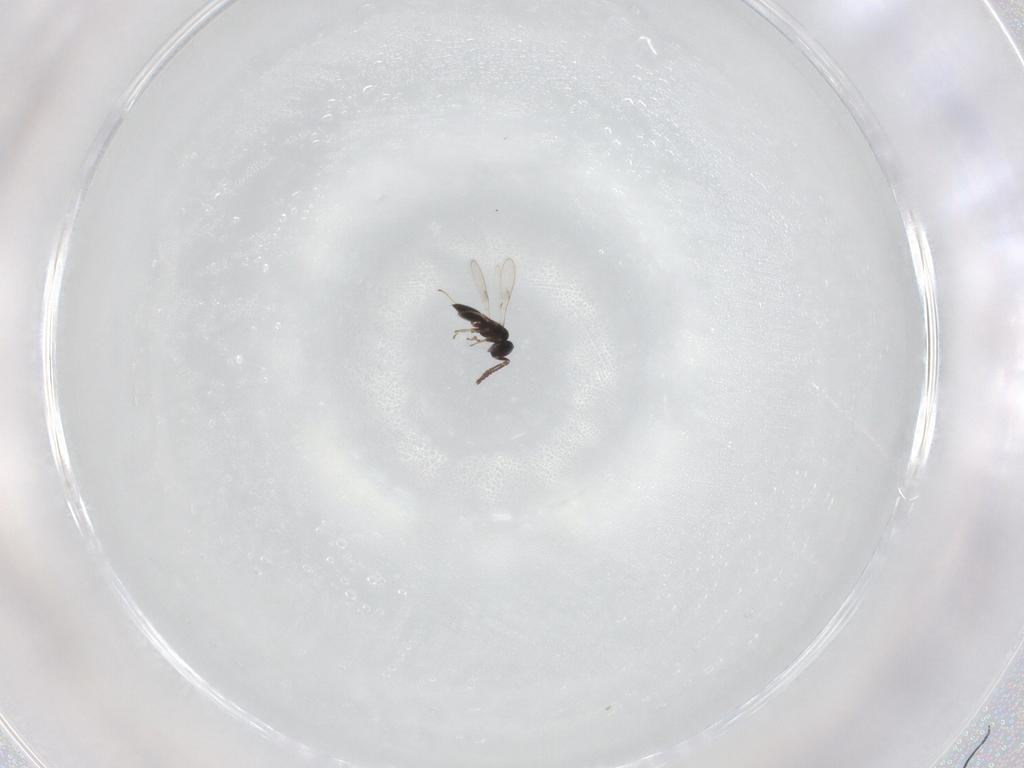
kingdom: Animalia
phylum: Arthropoda
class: Insecta
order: Hymenoptera
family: Scelionidae
